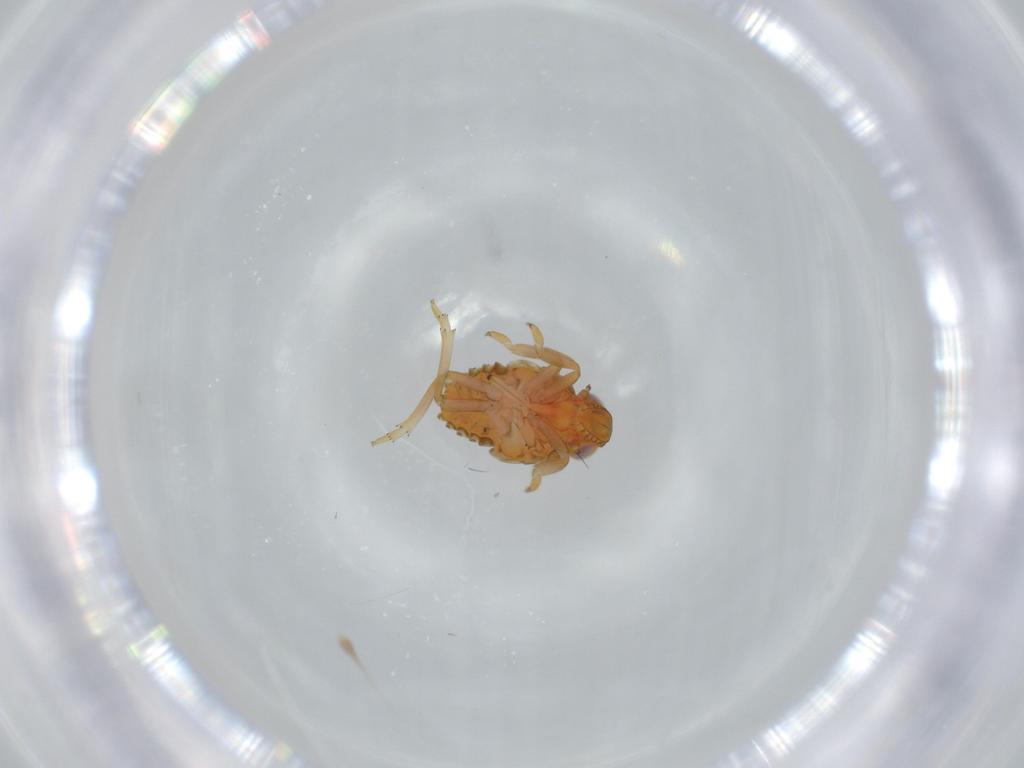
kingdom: Animalia
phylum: Arthropoda
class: Insecta
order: Hemiptera
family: Issidae
